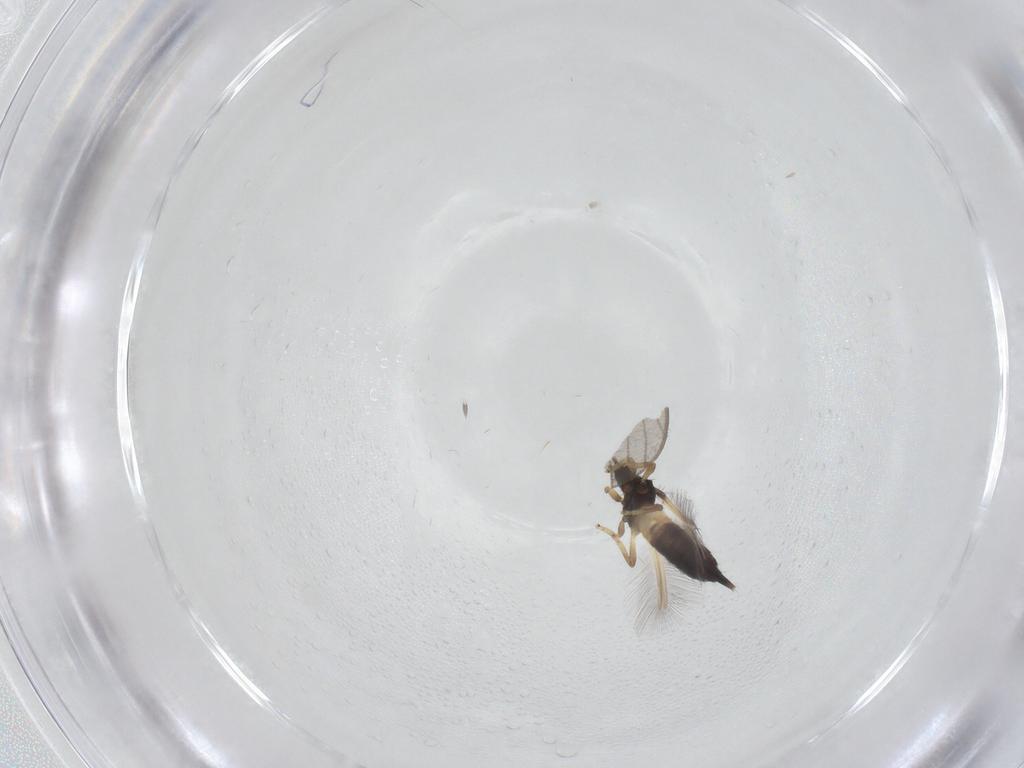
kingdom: Animalia
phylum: Arthropoda
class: Insecta
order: Thysanoptera
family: Phlaeothripidae
